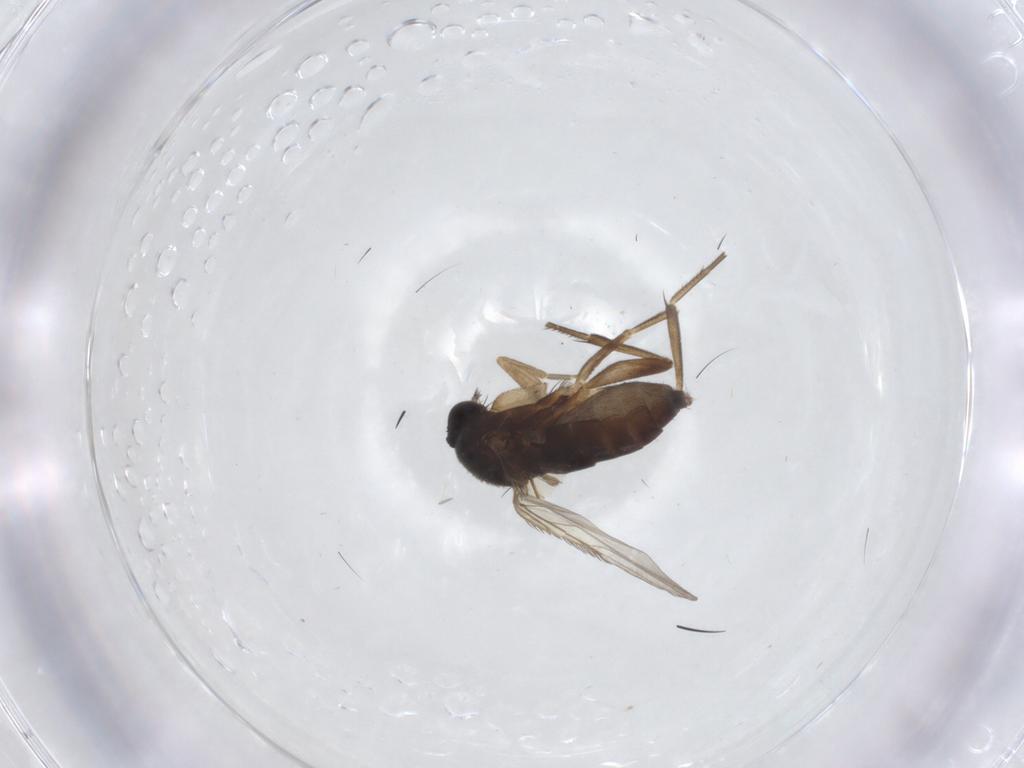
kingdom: Animalia
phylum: Arthropoda
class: Insecta
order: Diptera
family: Phoridae
